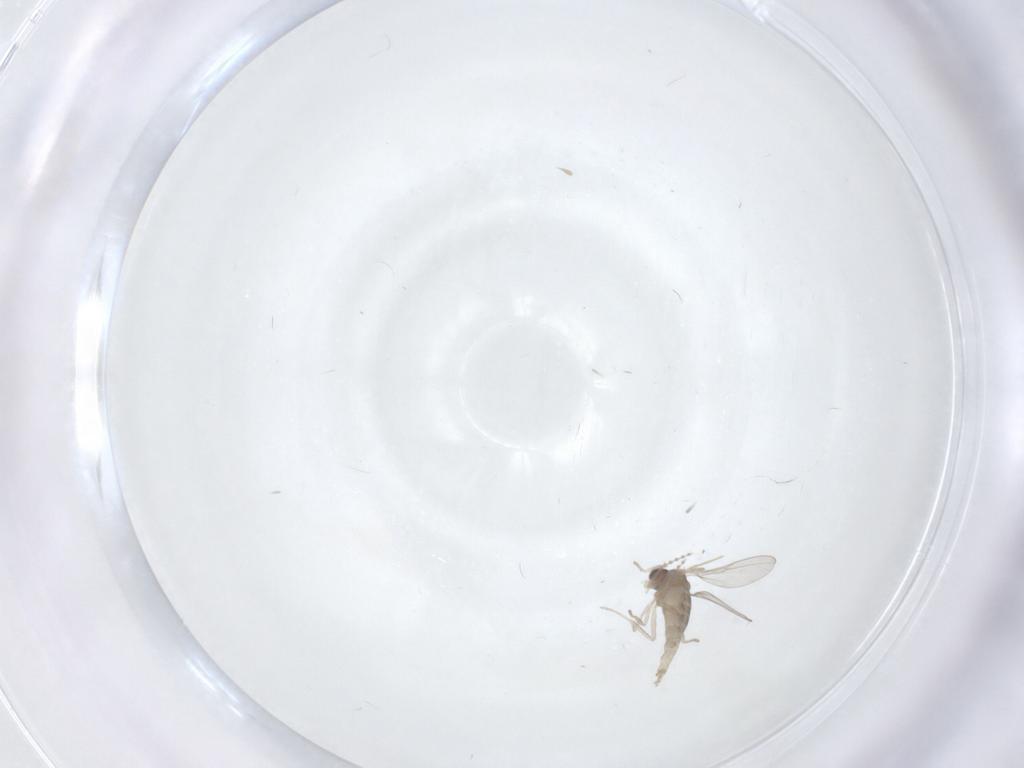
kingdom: Animalia
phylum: Arthropoda
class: Insecta
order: Diptera
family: Cecidomyiidae
